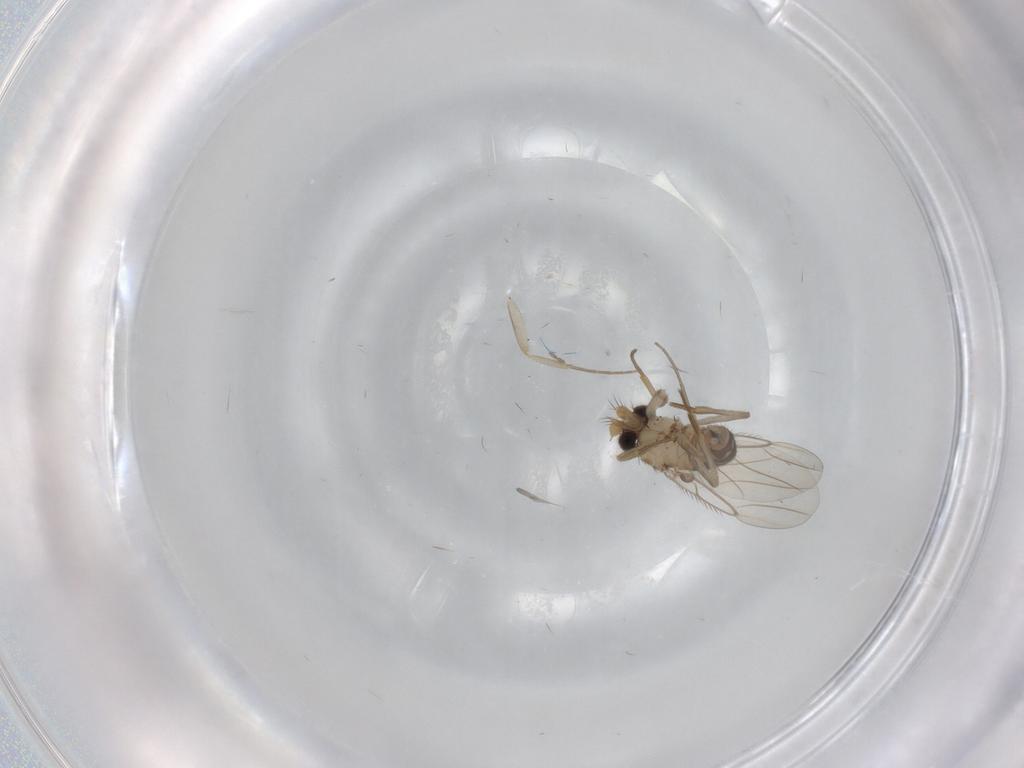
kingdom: Animalia
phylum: Arthropoda
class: Insecta
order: Diptera
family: Cecidomyiidae
